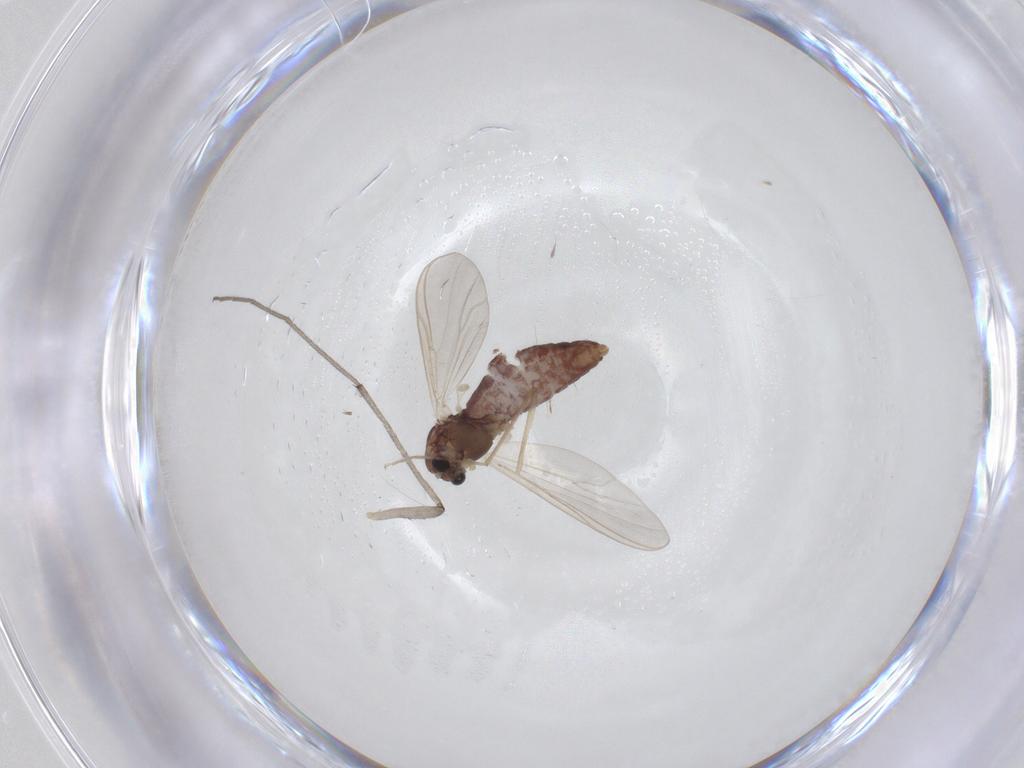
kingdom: Animalia
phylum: Arthropoda
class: Insecta
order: Diptera
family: Chironomidae
